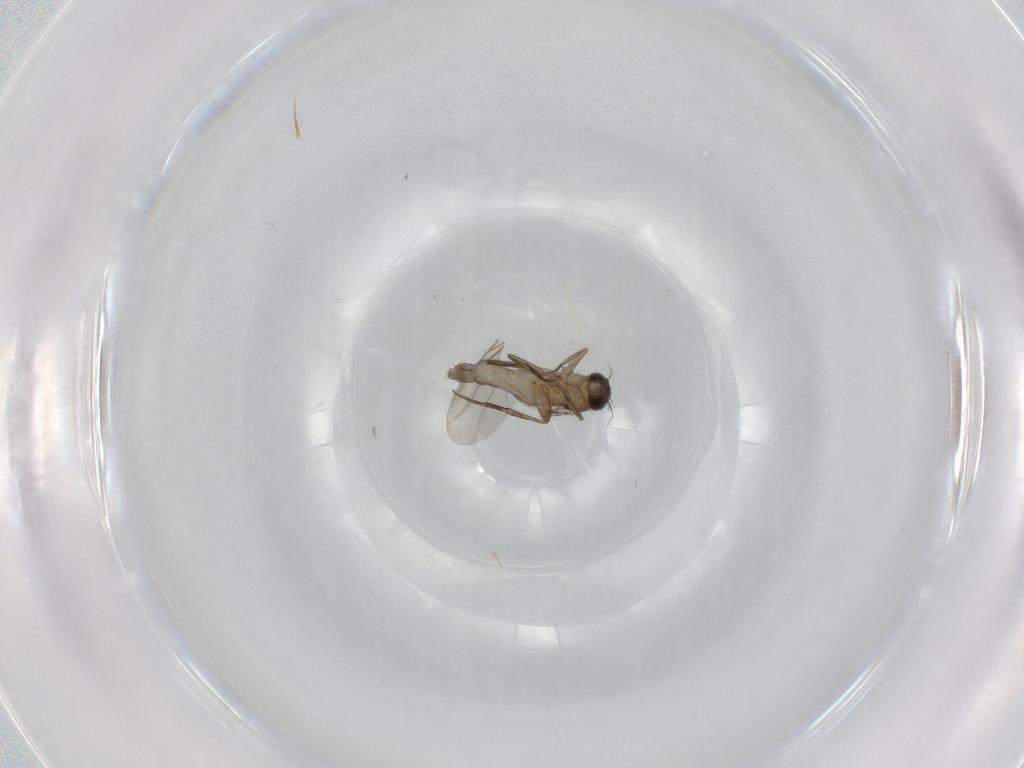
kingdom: Animalia
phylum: Arthropoda
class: Insecta
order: Diptera
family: Phoridae
